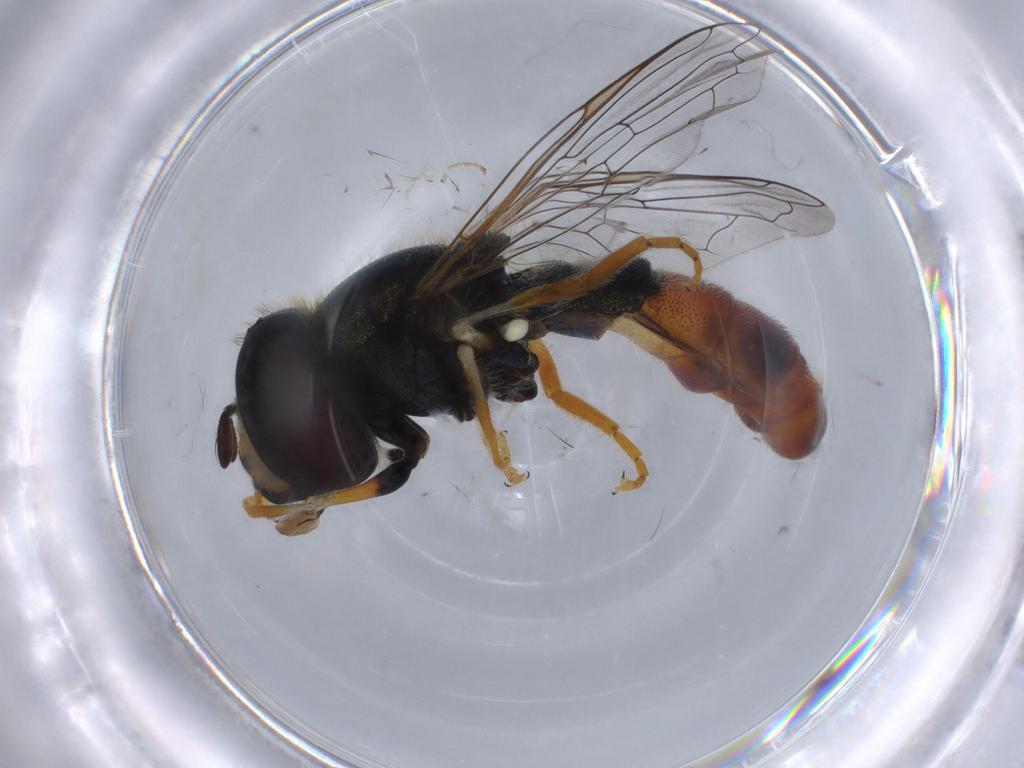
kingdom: Animalia
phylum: Arthropoda
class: Insecta
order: Diptera
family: Syrphidae
